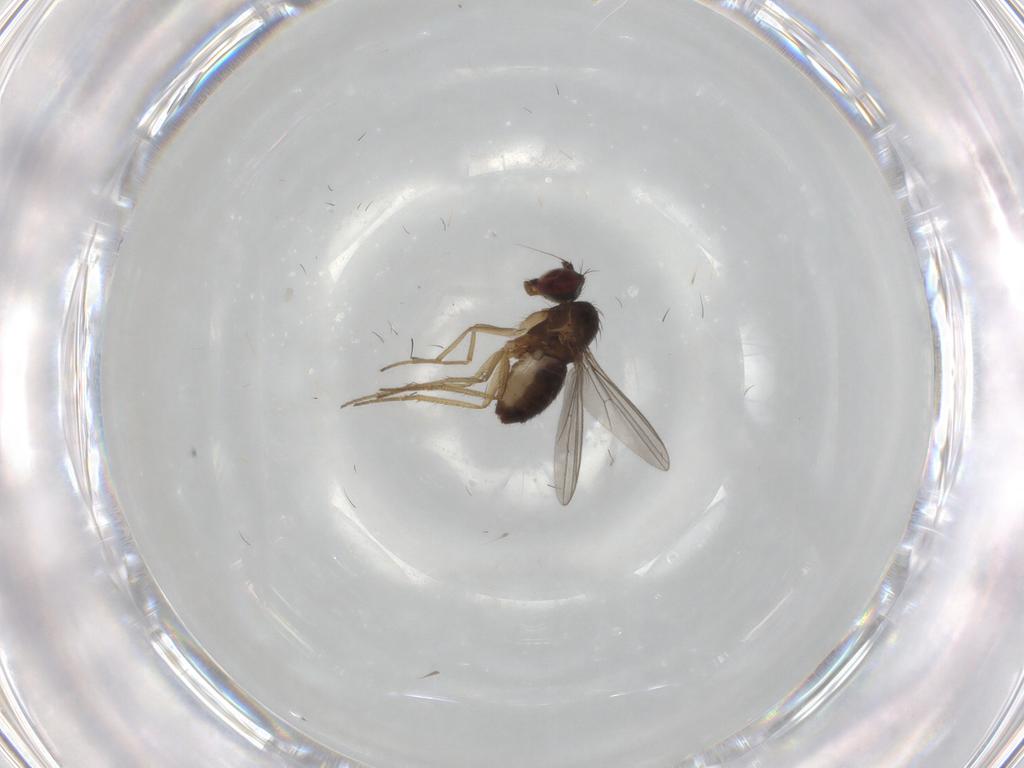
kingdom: Animalia
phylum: Arthropoda
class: Insecta
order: Diptera
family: Dolichopodidae
